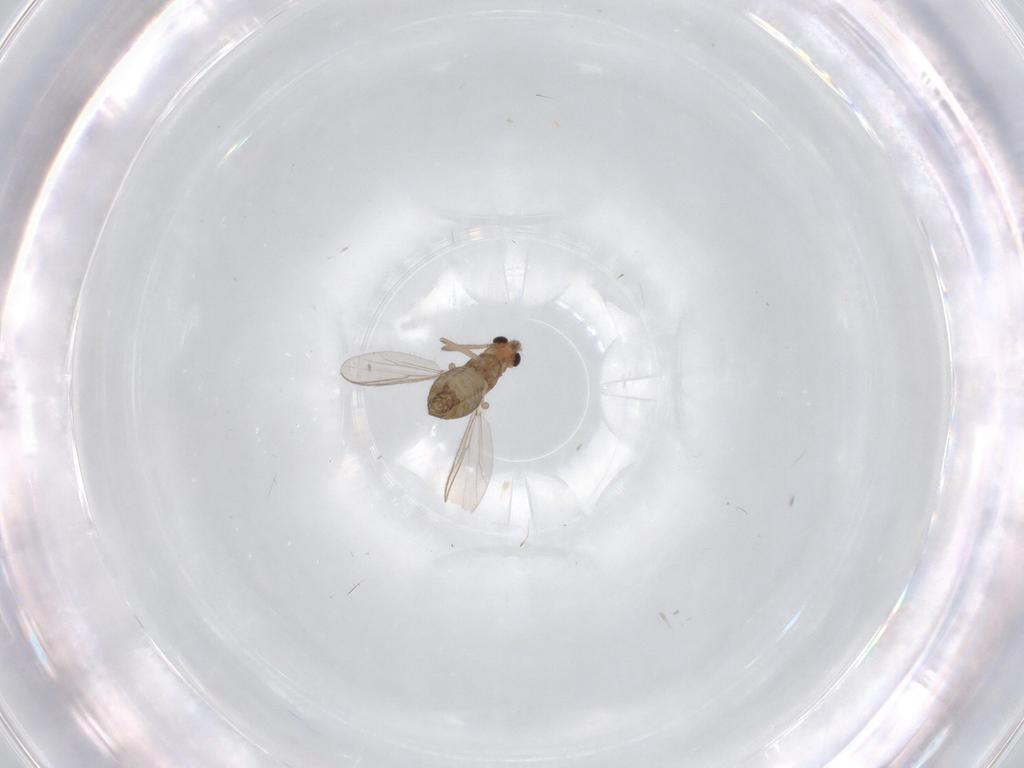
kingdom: Animalia
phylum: Arthropoda
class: Insecta
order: Diptera
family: Chironomidae
